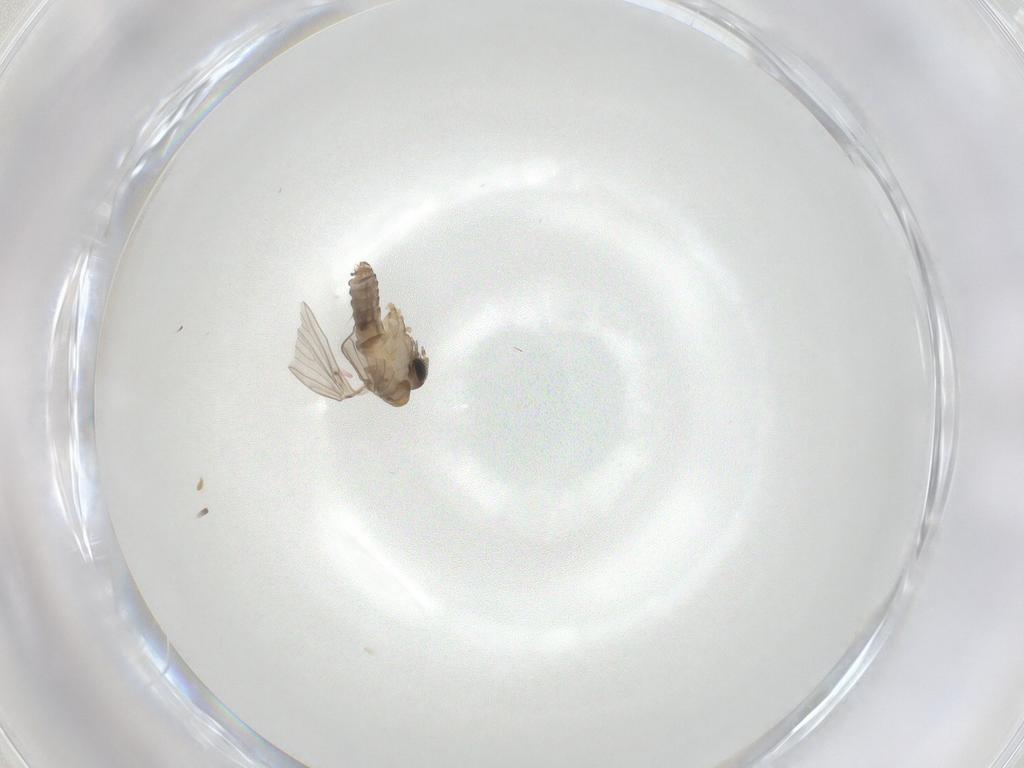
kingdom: Animalia
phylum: Arthropoda
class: Insecta
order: Diptera
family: Psychodidae
